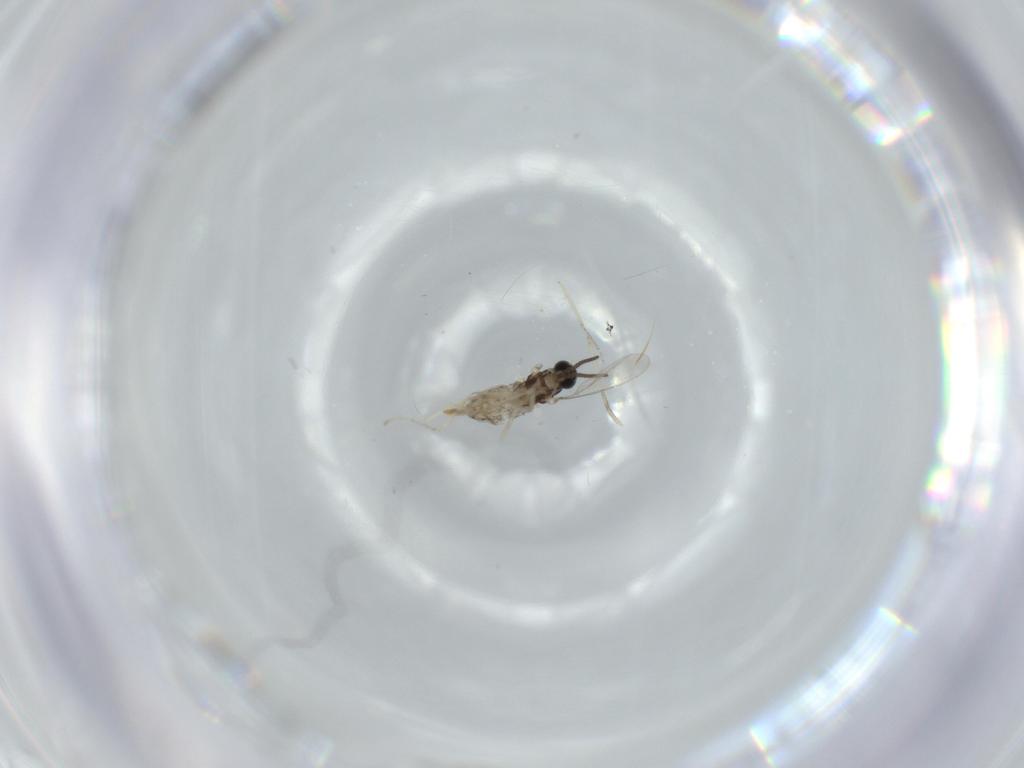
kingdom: Animalia
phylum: Arthropoda
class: Insecta
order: Diptera
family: Cecidomyiidae
